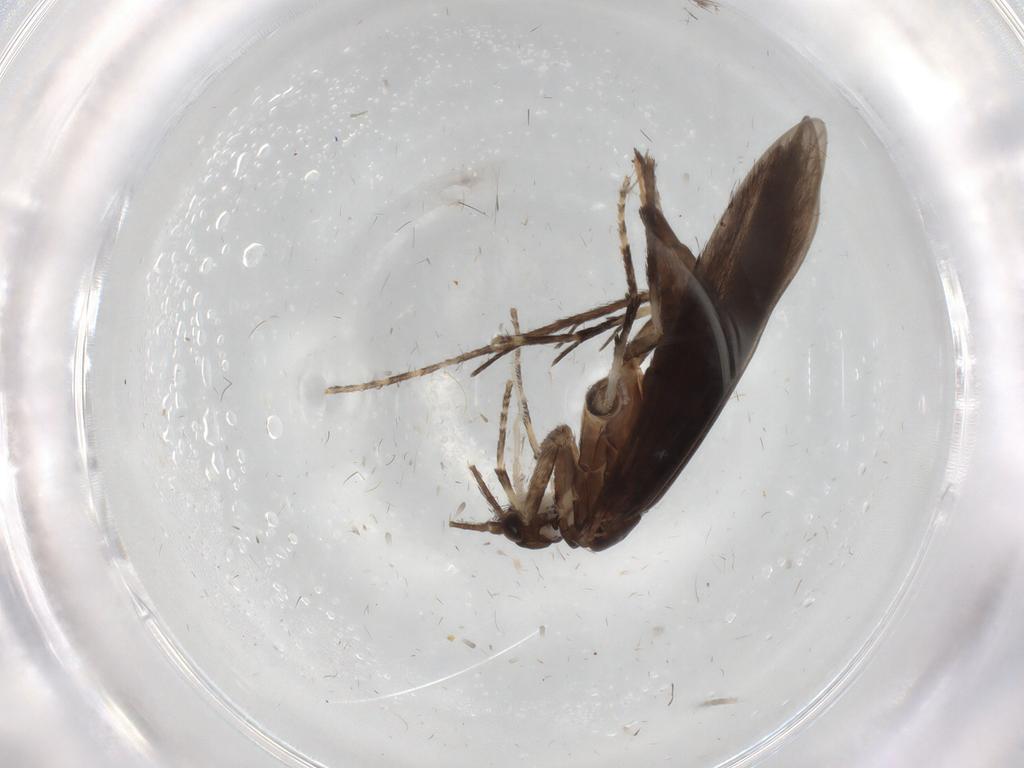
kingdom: Animalia
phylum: Arthropoda
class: Insecta
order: Trichoptera
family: Xiphocentronidae
